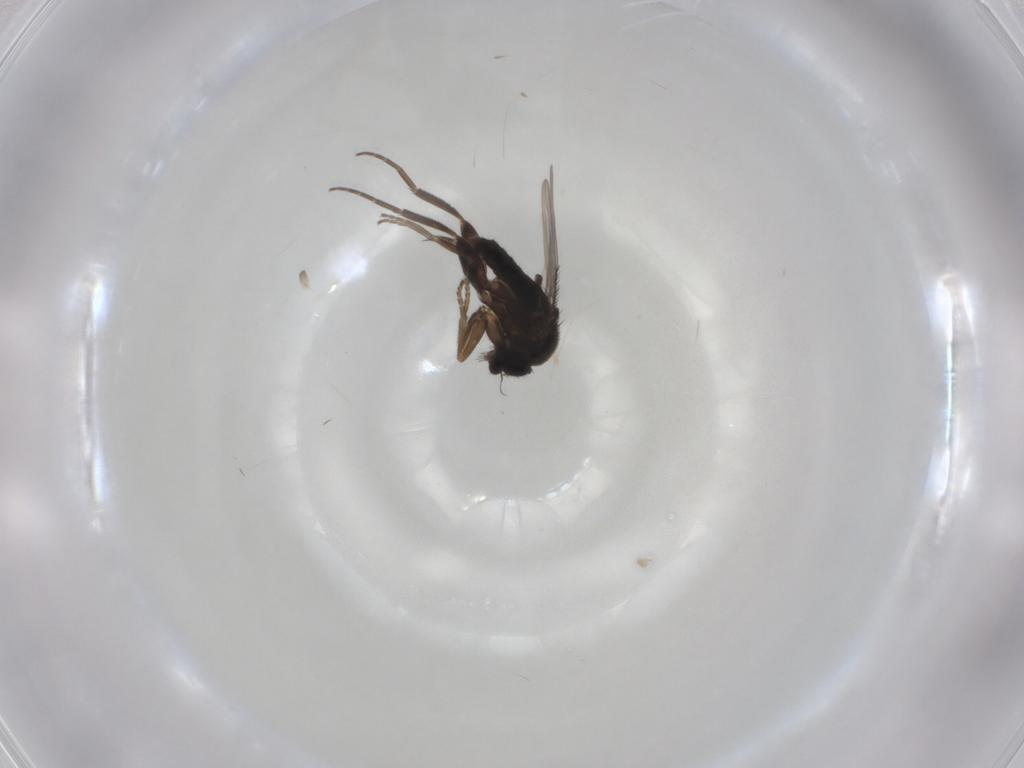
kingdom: Animalia
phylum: Arthropoda
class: Insecta
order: Diptera
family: Phoridae
